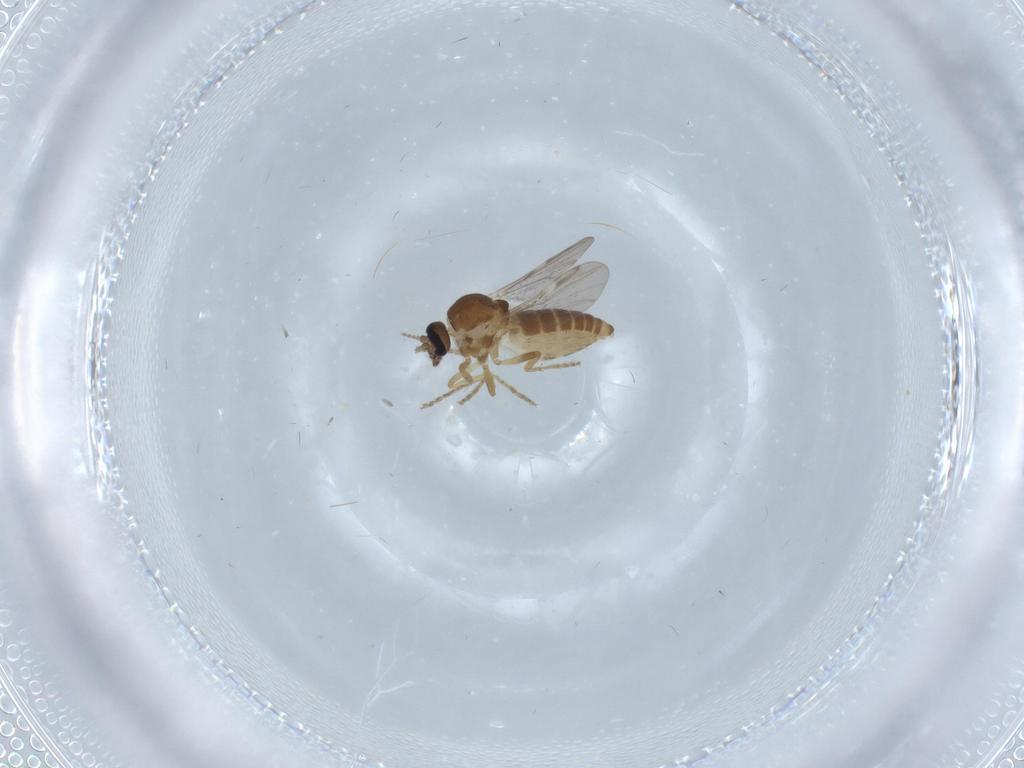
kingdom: Animalia
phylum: Arthropoda
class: Insecta
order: Diptera
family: Ceratopogonidae
